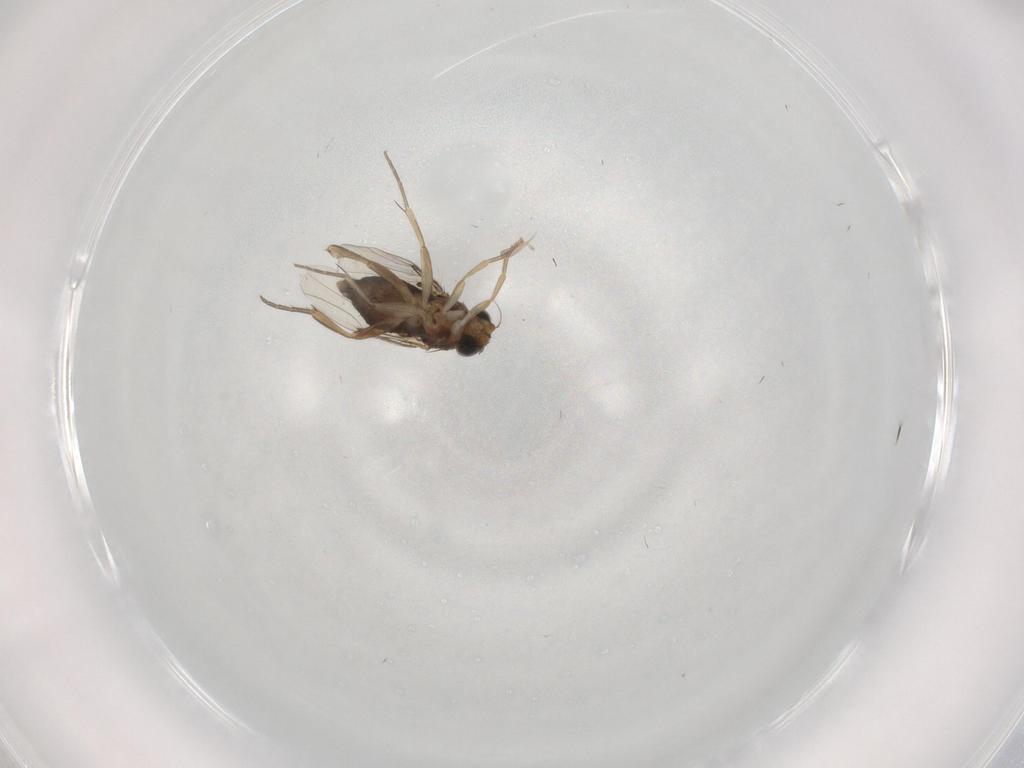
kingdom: Animalia
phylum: Arthropoda
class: Insecta
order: Diptera
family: Phoridae
